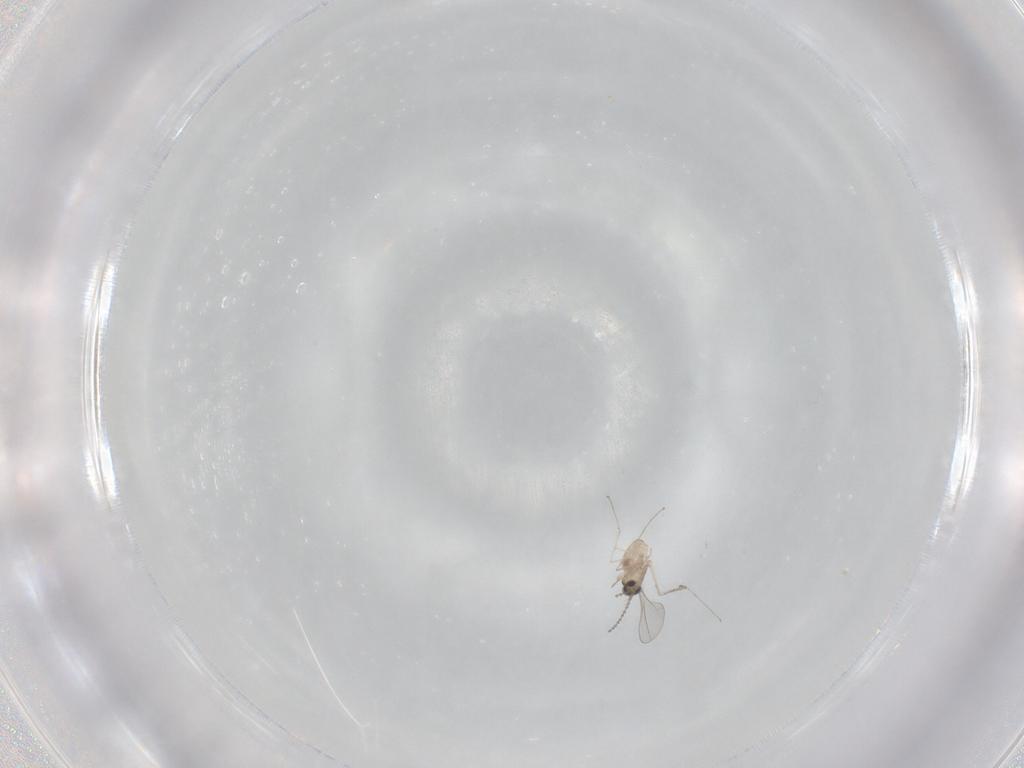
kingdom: Animalia
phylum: Arthropoda
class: Insecta
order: Diptera
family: Cecidomyiidae
